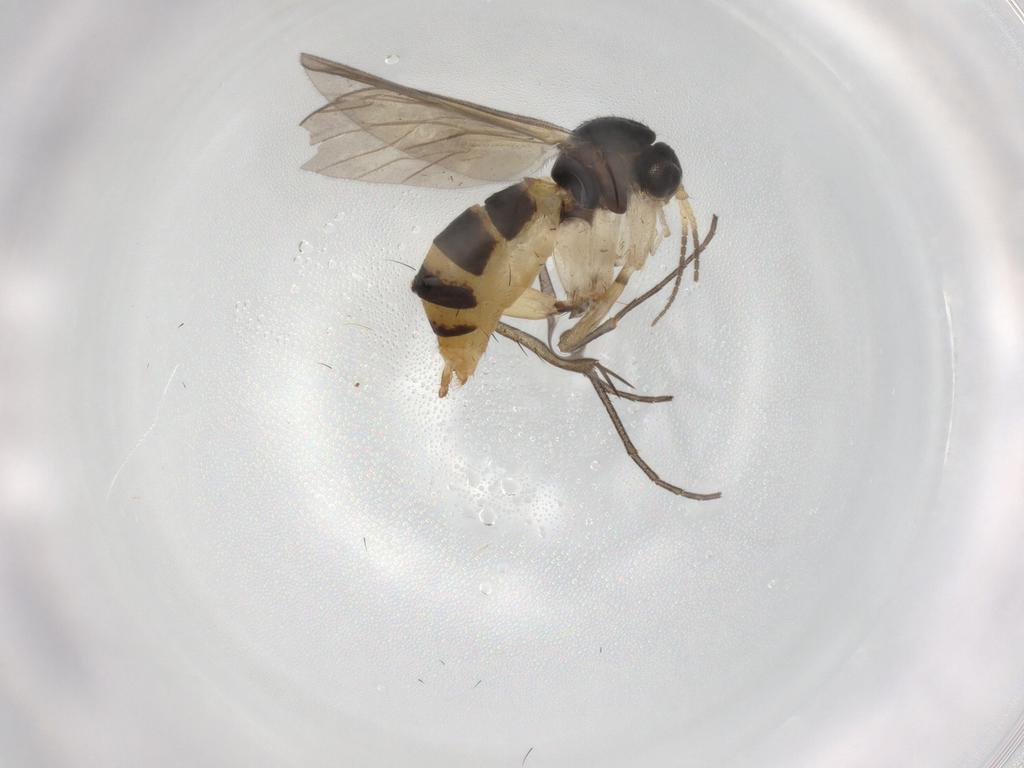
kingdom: Animalia
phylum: Arthropoda
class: Insecta
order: Diptera
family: Mycetophilidae
